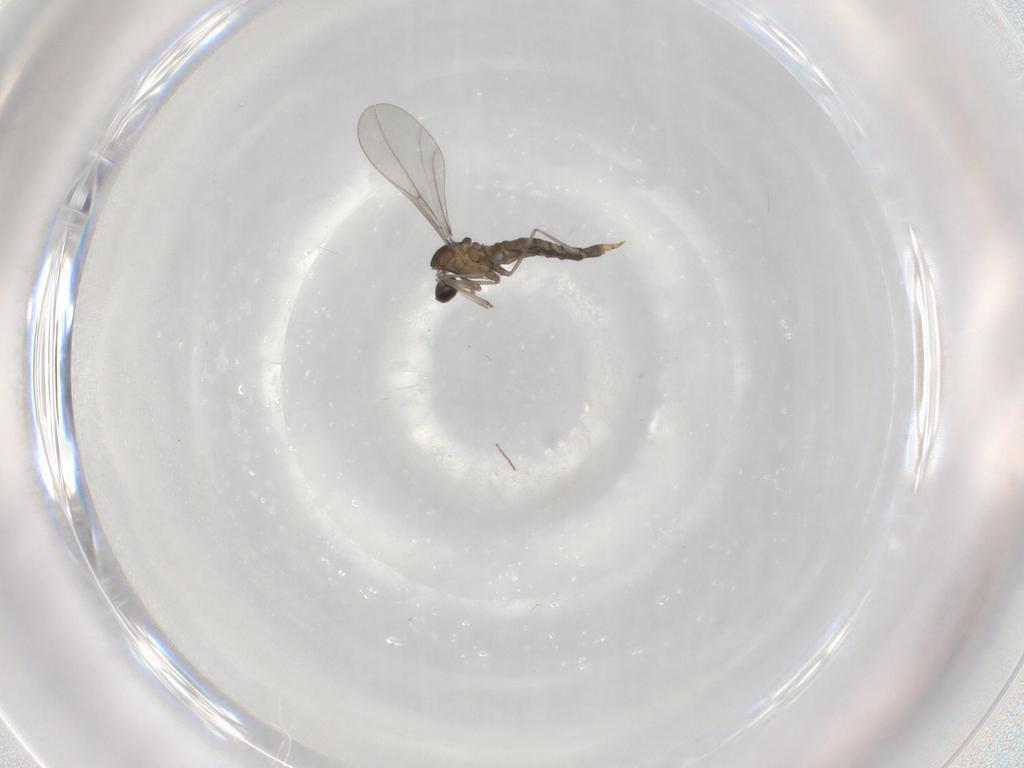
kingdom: Animalia
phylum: Arthropoda
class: Insecta
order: Diptera
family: Cecidomyiidae
